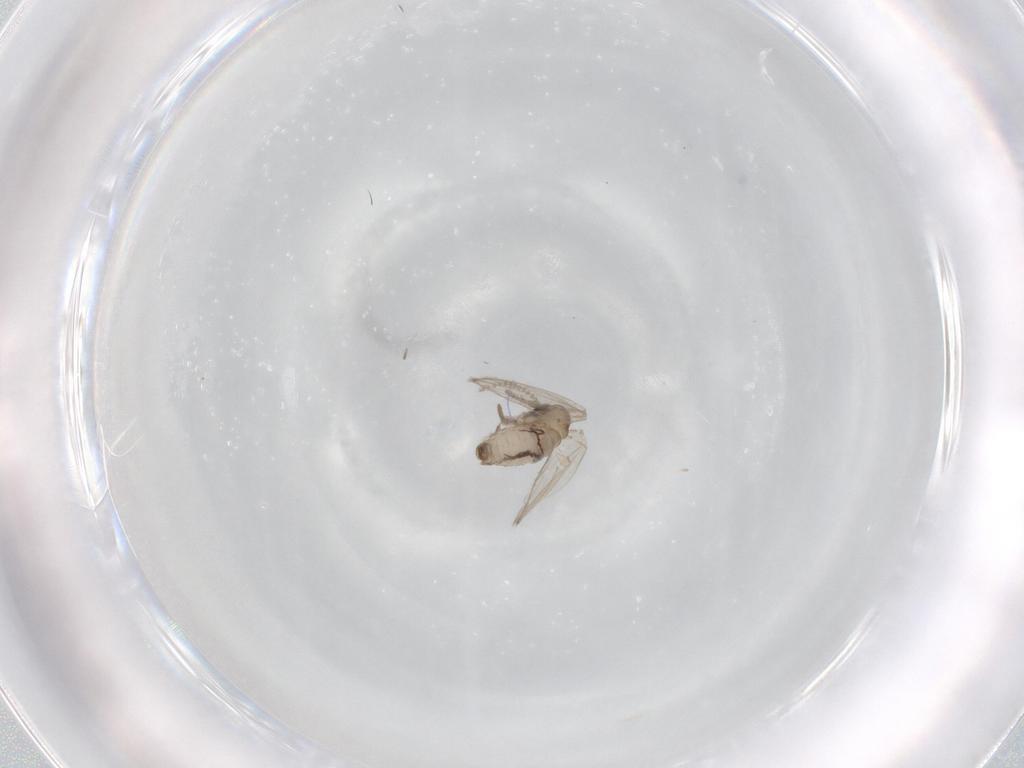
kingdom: Animalia
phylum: Arthropoda
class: Insecta
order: Diptera
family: Psychodidae
